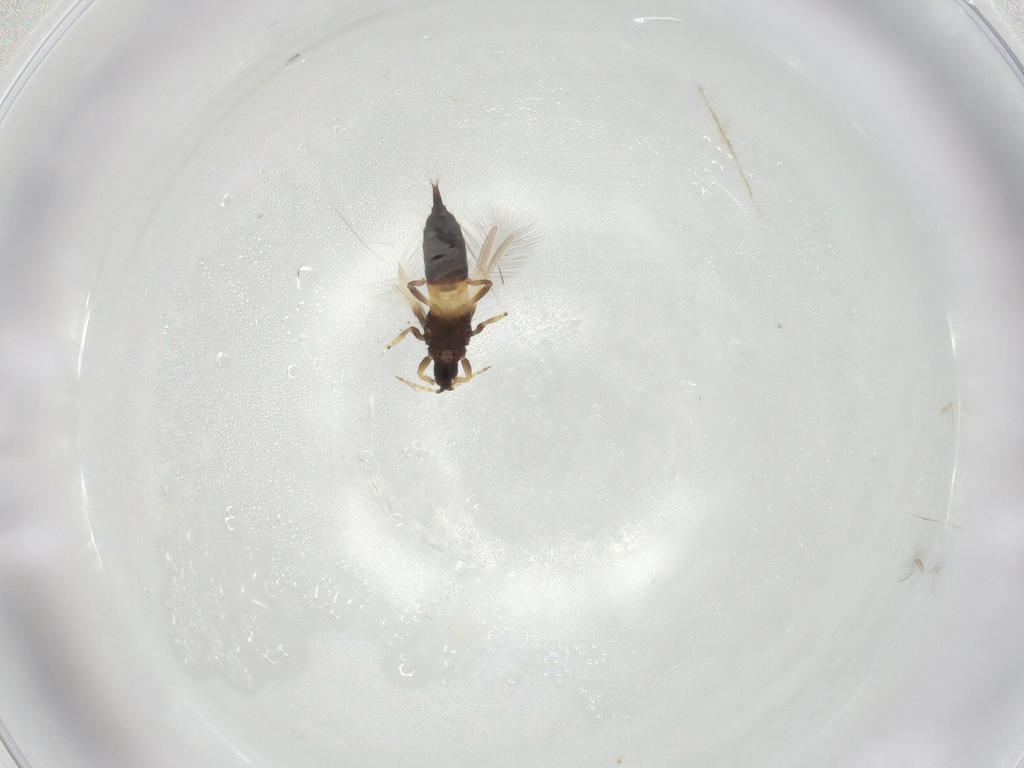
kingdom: Animalia
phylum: Arthropoda
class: Insecta
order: Thysanoptera
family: Phlaeothripidae
